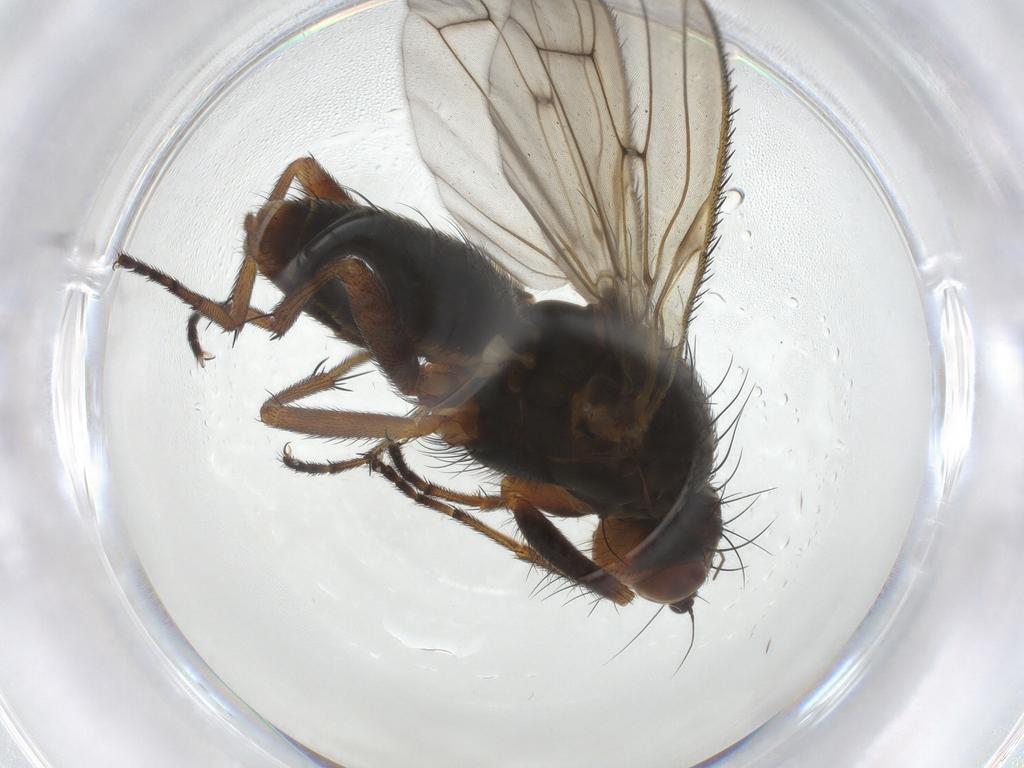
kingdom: Animalia
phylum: Arthropoda
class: Insecta
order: Diptera
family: Heleomyzidae
